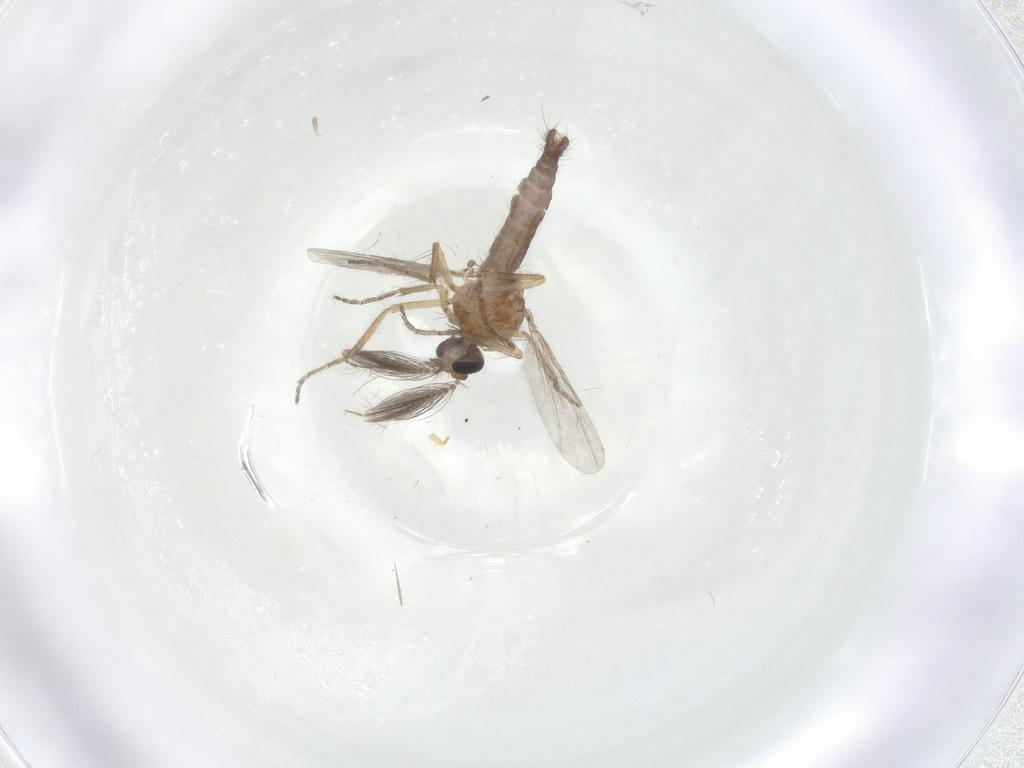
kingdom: Animalia
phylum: Arthropoda
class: Insecta
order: Diptera
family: Ceratopogonidae
